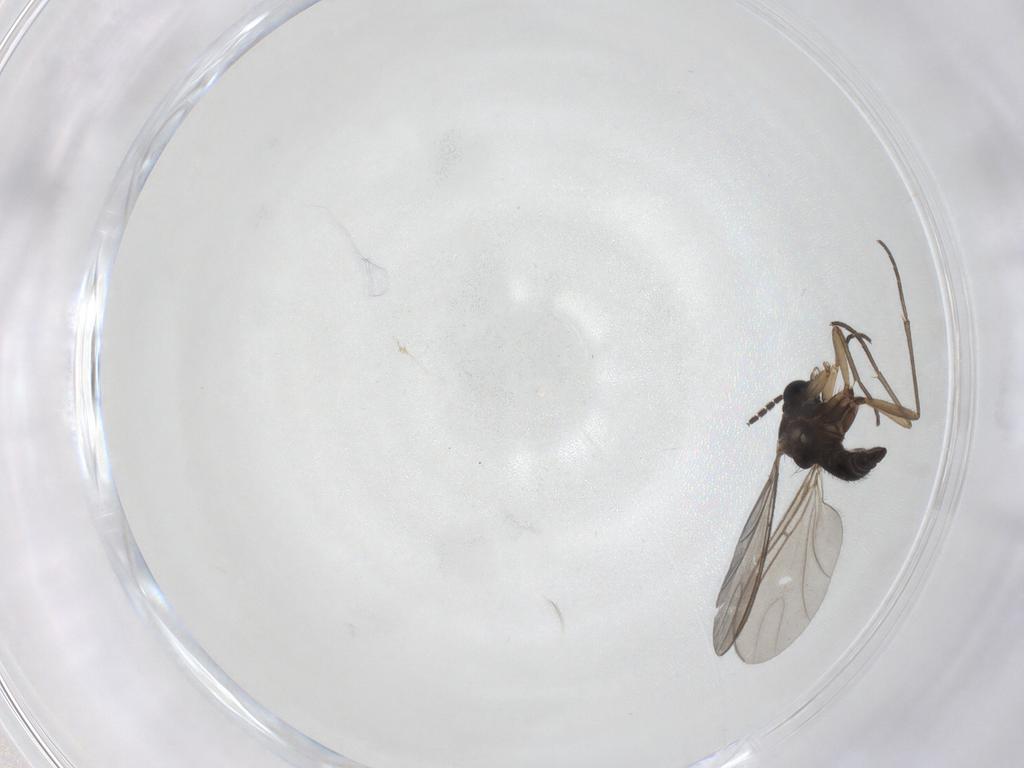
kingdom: Animalia
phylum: Arthropoda
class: Insecta
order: Diptera
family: Sciaridae
